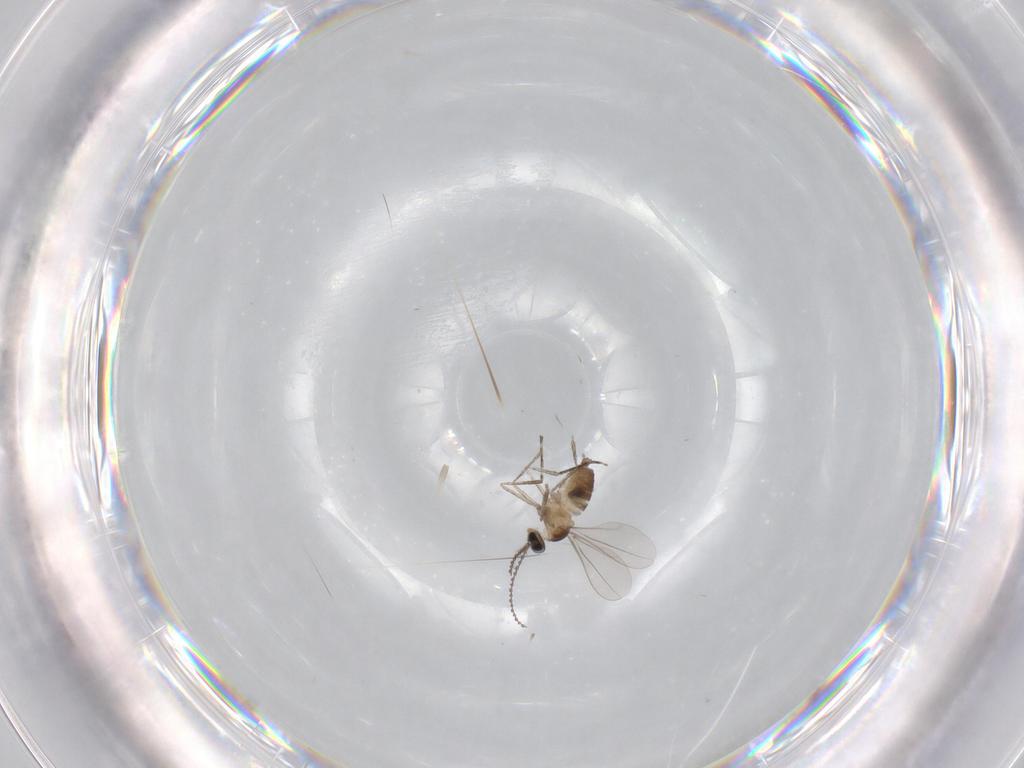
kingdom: Animalia
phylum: Arthropoda
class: Insecta
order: Diptera
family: Cecidomyiidae
